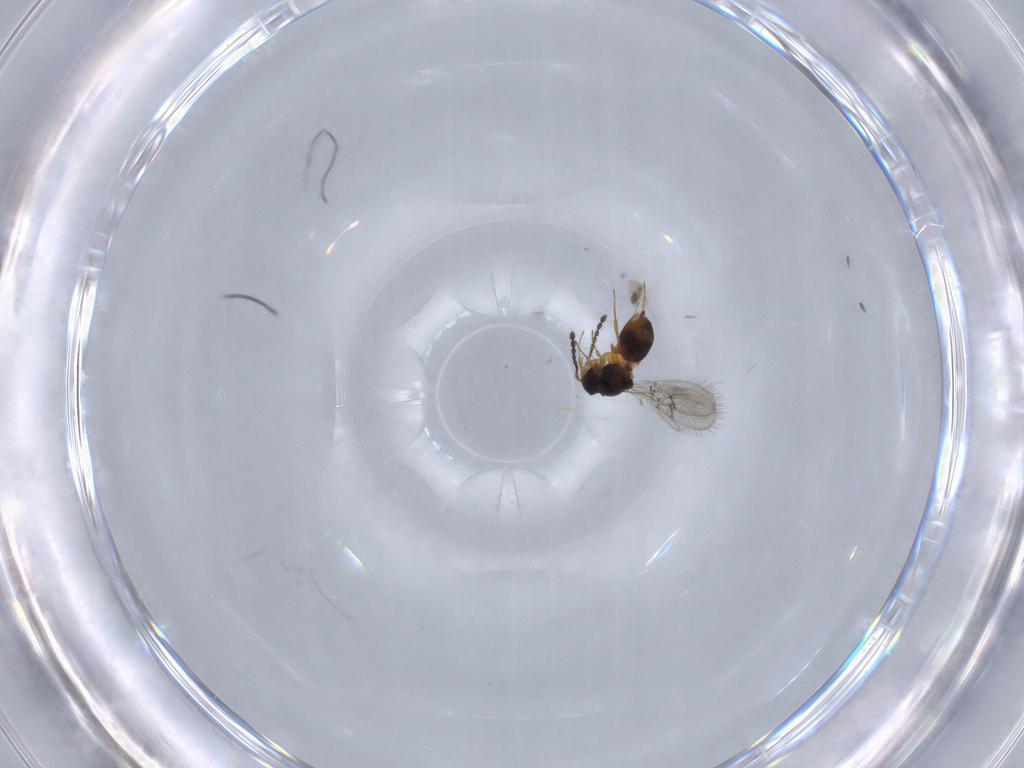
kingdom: Animalia
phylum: Arthropoda
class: Insecta
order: Hymenoptera
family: Figitidae
